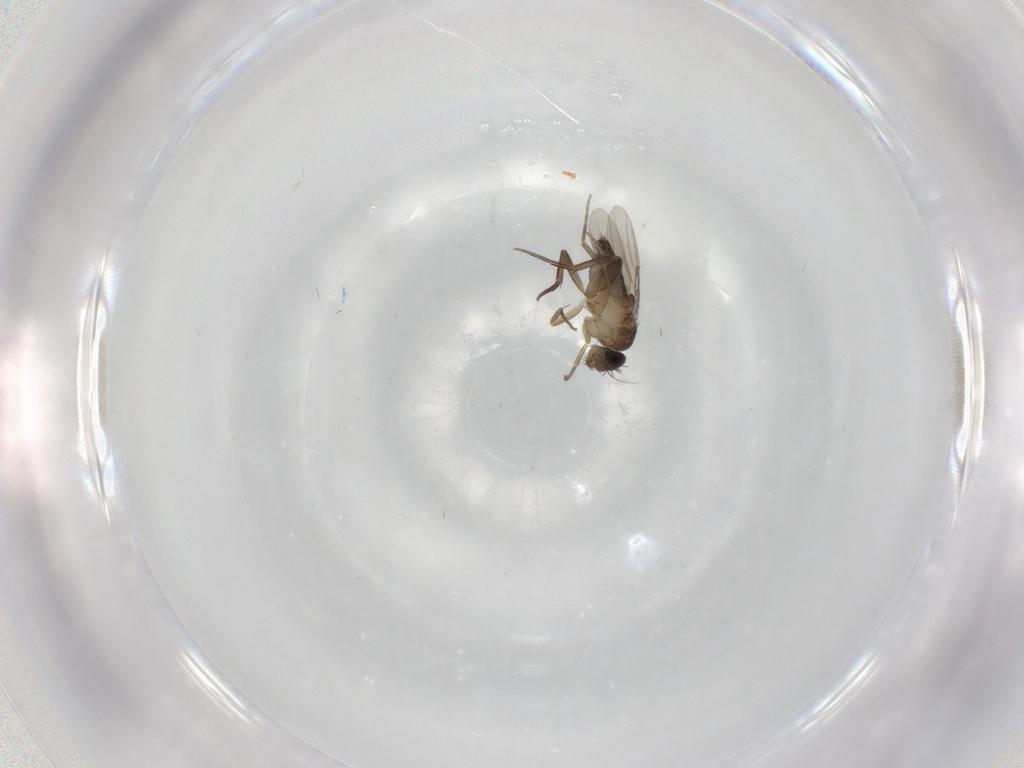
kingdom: Animalia
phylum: Arthropoda
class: Insecta
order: Diptera
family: Phoridae
